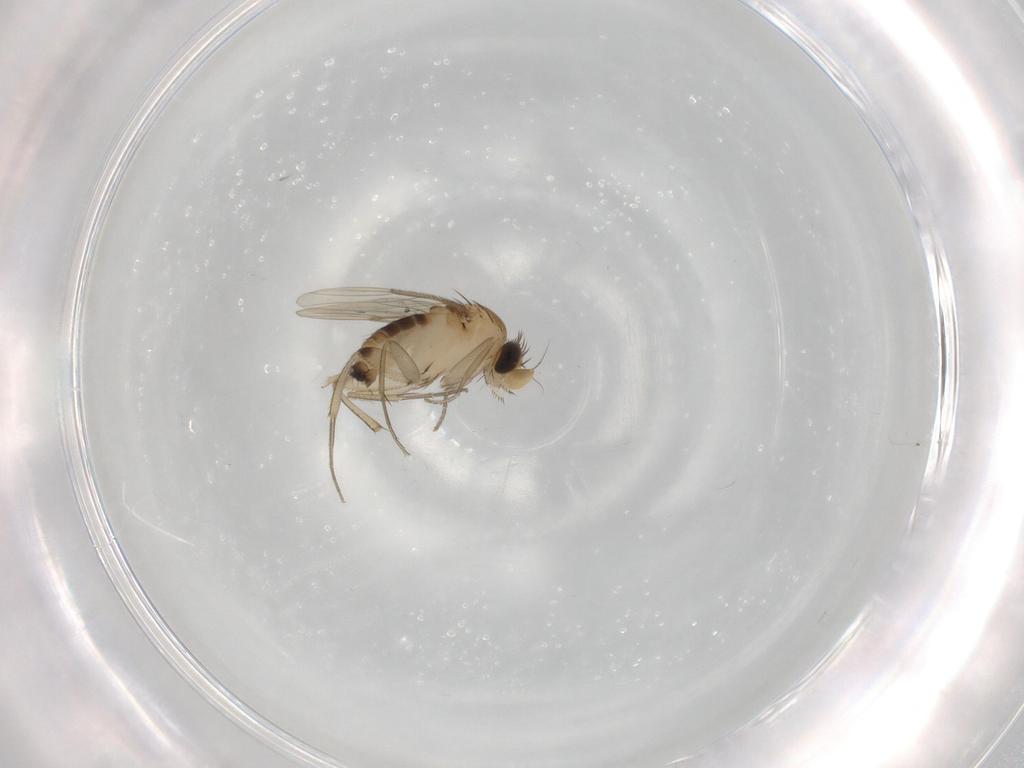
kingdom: Animalia
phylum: Arthropoda
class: Insecta
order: Diptera
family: Phoridae
